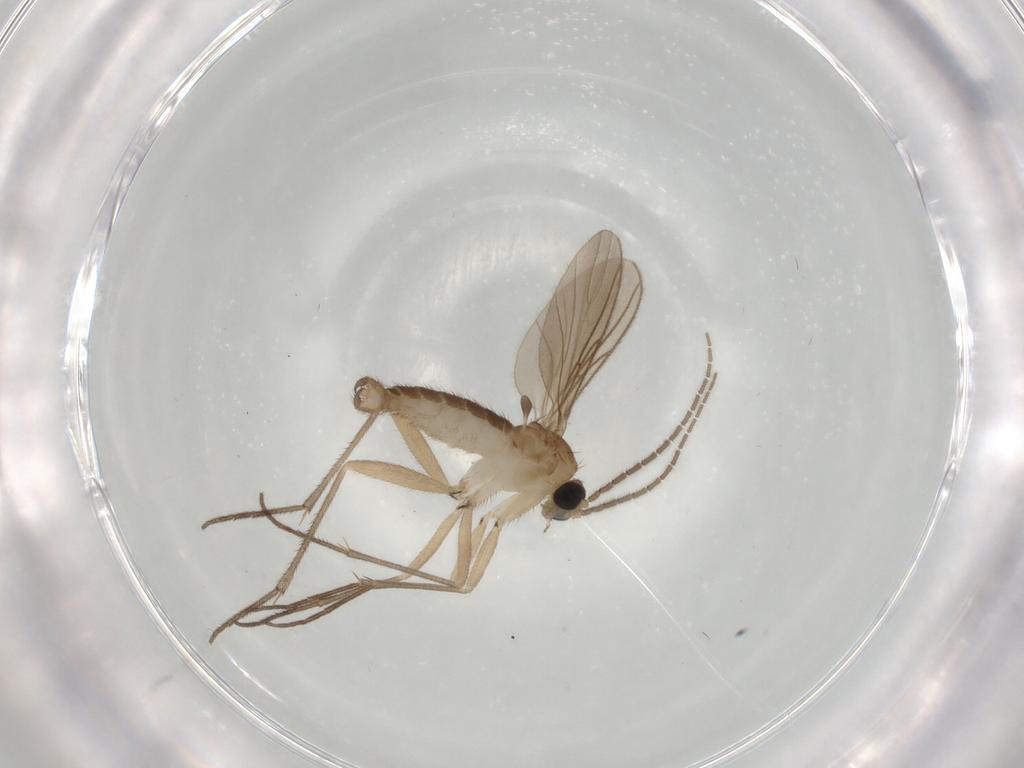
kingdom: Animalia
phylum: Arthropoda
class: Insecta
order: Diptera
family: Sciaridae
